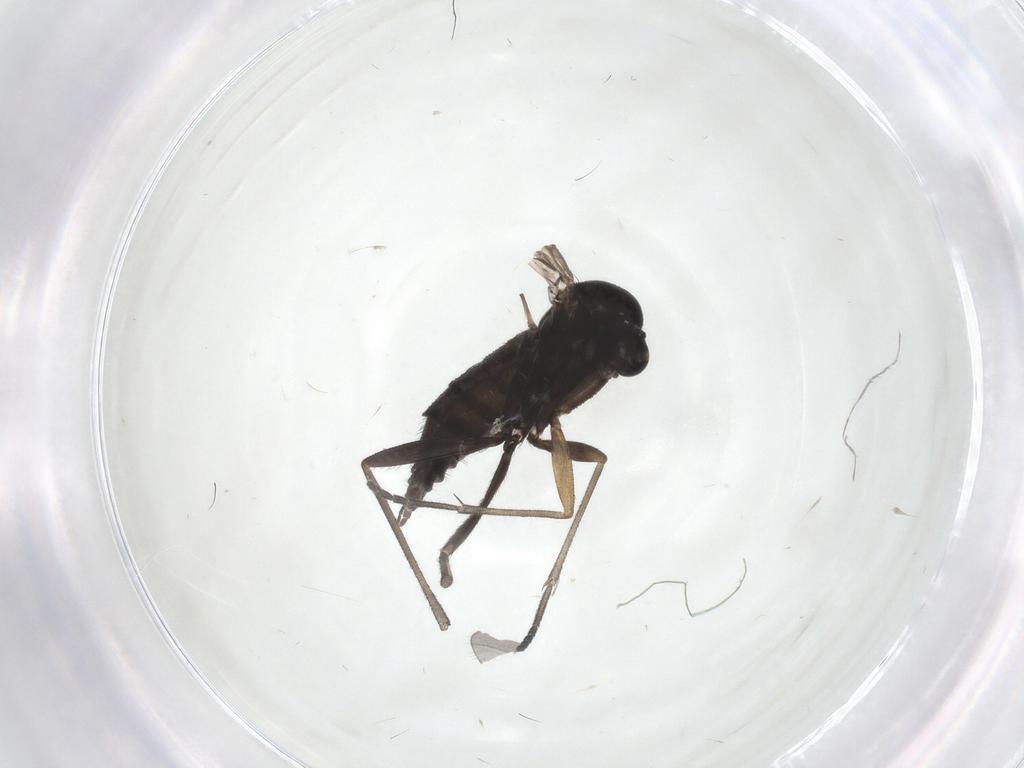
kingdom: Animalia
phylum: Arthropoda
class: Insecta
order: Diptera
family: Sciaridae
